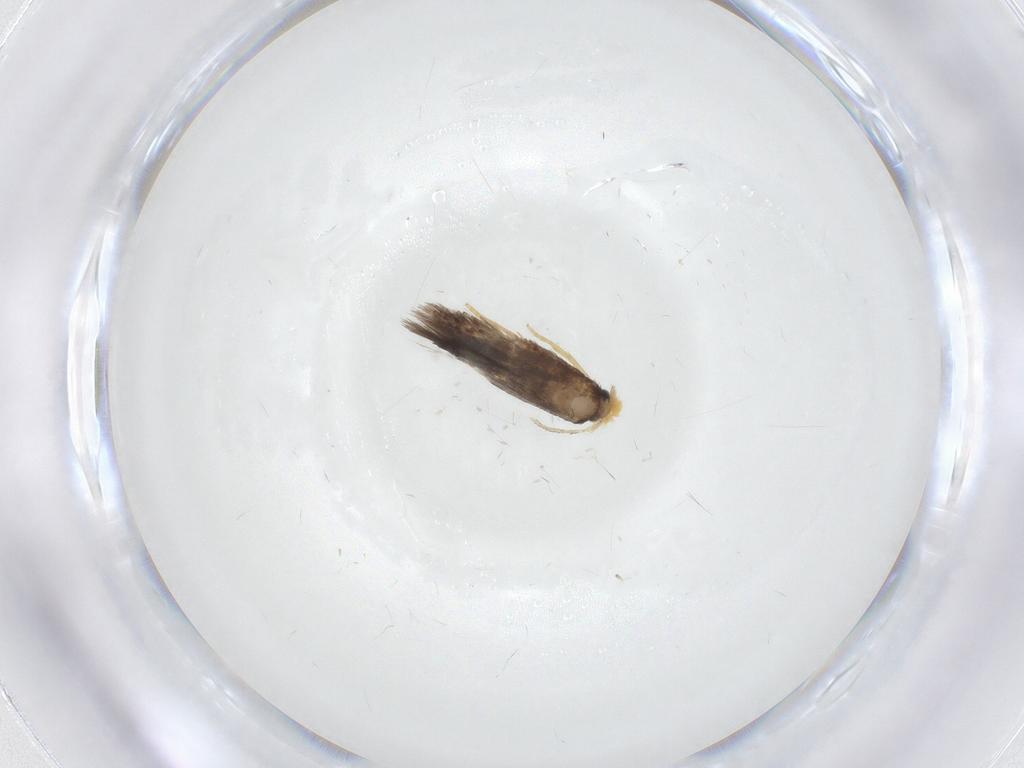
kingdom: Animalia
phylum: Arthropoda
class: Insecta
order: Lepidoptera
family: Nepticulidae
